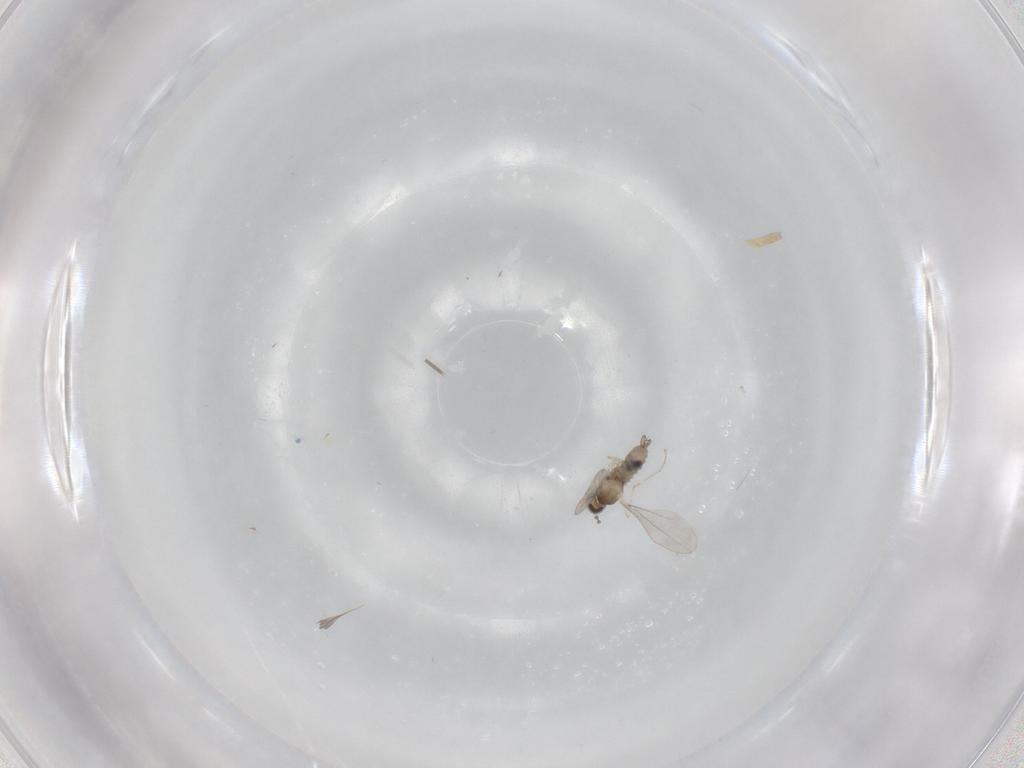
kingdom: Animalia
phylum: Arthropoda
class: Insecta
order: Diptera
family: Cecidomyiidae
